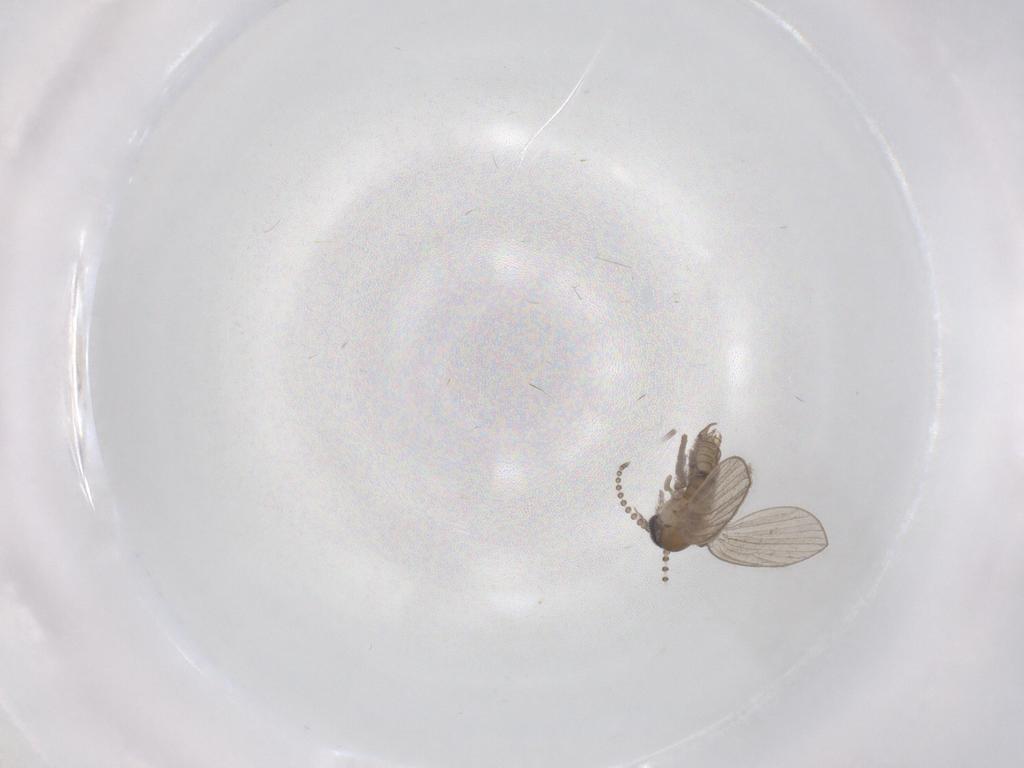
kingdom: Animalia
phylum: Arthropoda
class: Insecta
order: Diptera
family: Psychodidae
